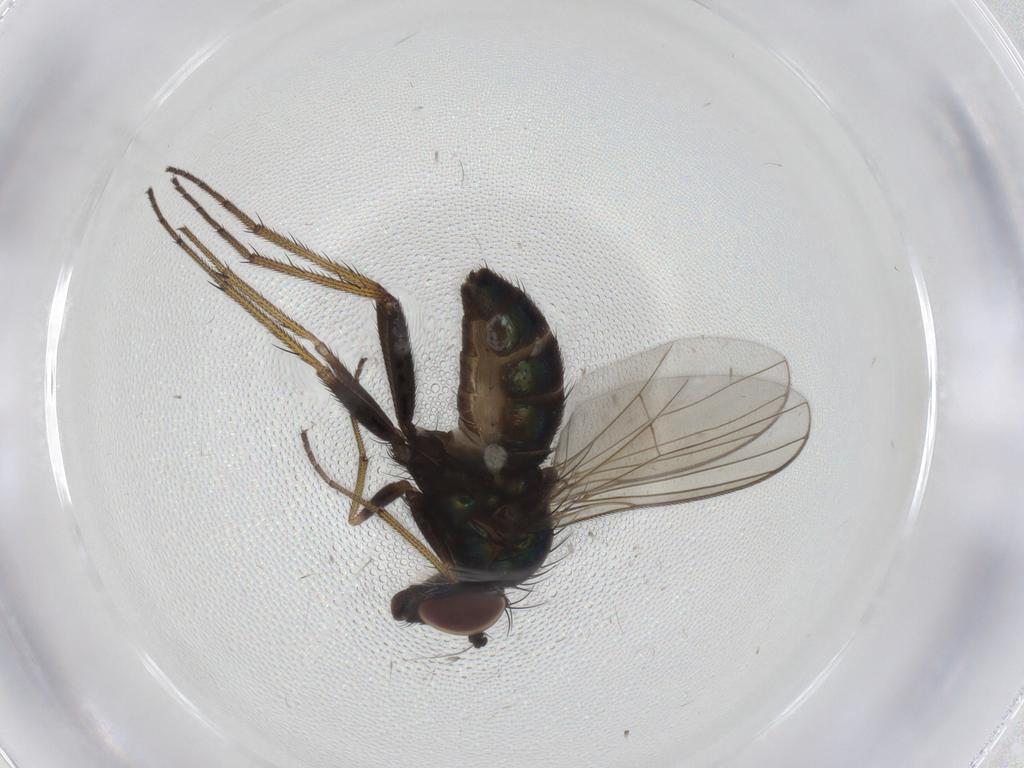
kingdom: Animalia
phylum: Arthropoda
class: Insecta
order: Diptera
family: Dolichopodidae
